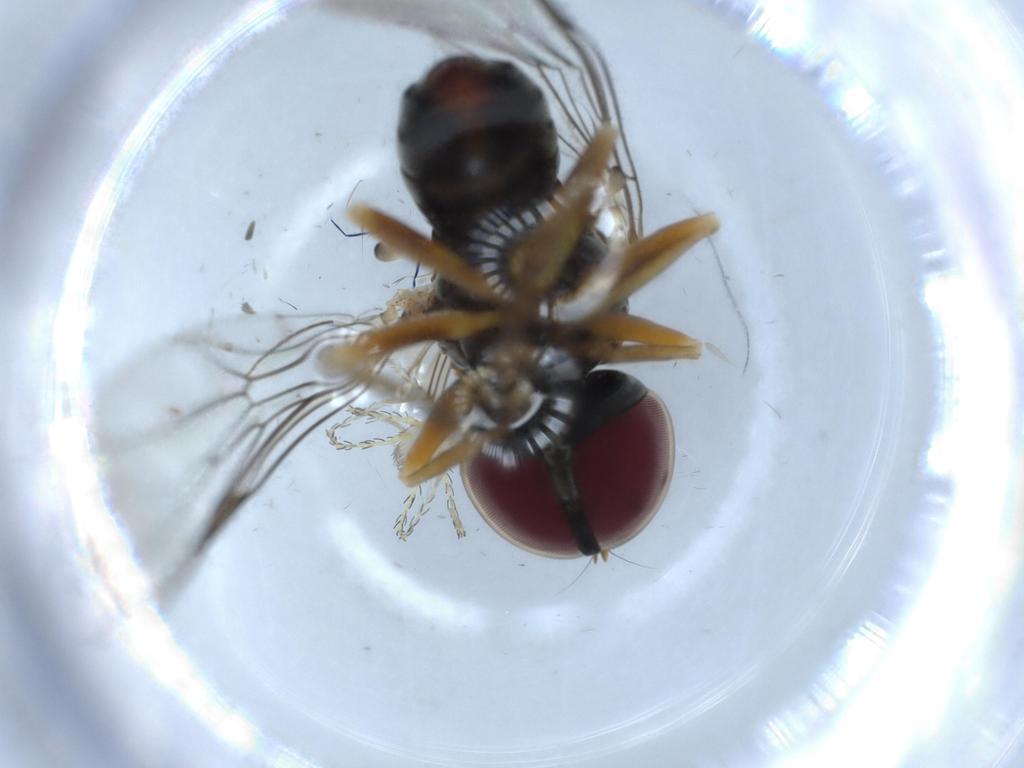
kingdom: Animalia
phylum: Arthropoda
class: Insecta
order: Diptera
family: Pipunculidae
